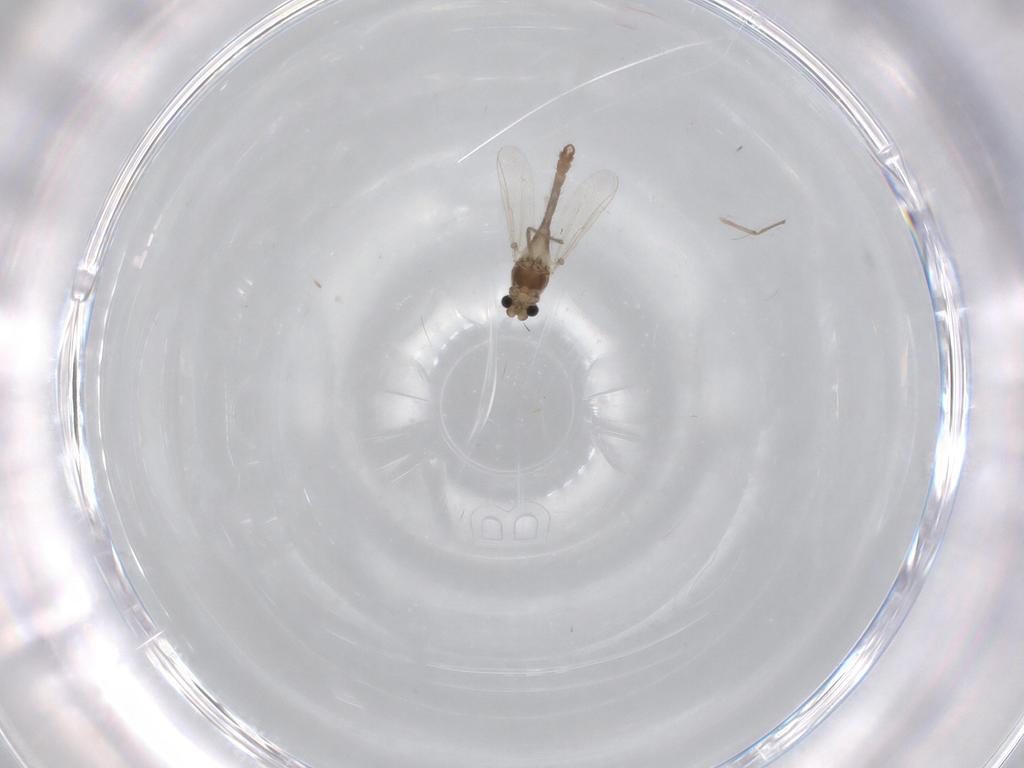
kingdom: Animalia
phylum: Arthropoda
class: Insecta
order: Diptera
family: Chironomidae
